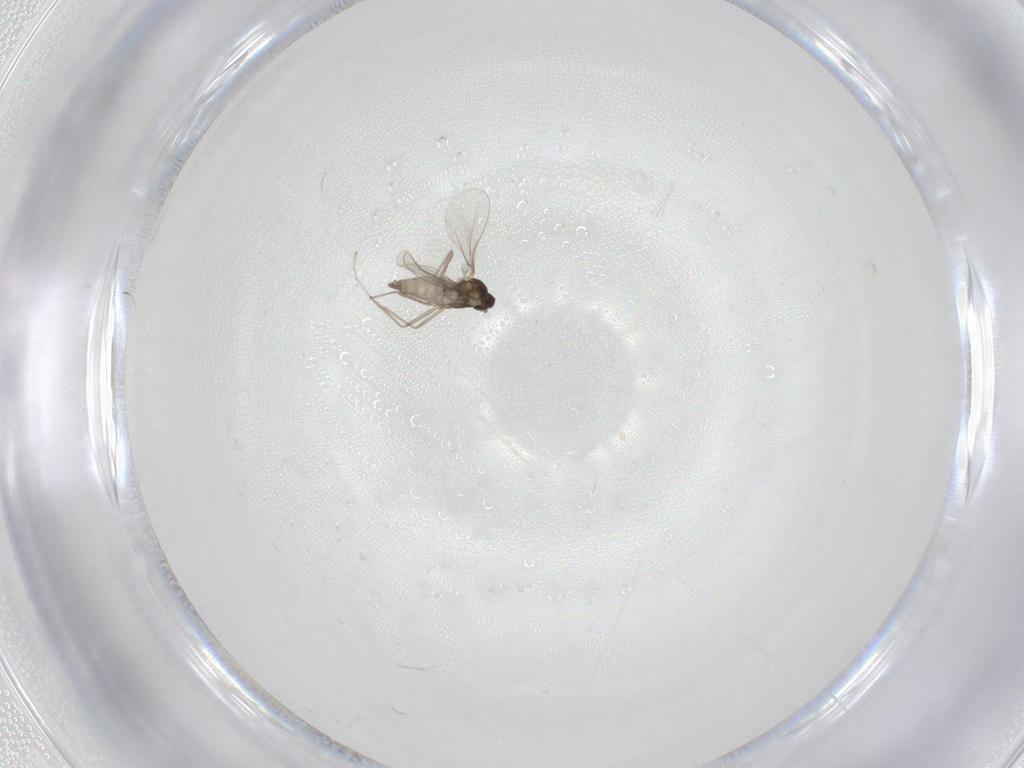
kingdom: Animalia
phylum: Arthropoda
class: Insecta
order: Diptera
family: Cecidomyiidae
